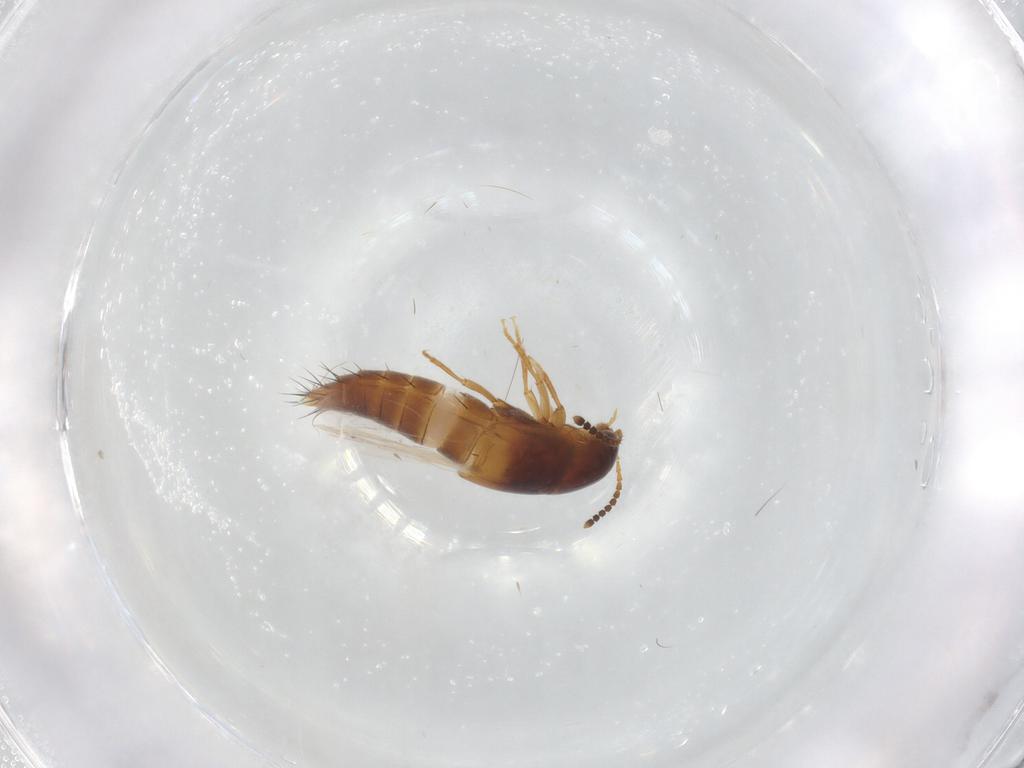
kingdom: Animalia
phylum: Arthropoda
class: Insecta
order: Coleoptera
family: Staphylinidae
